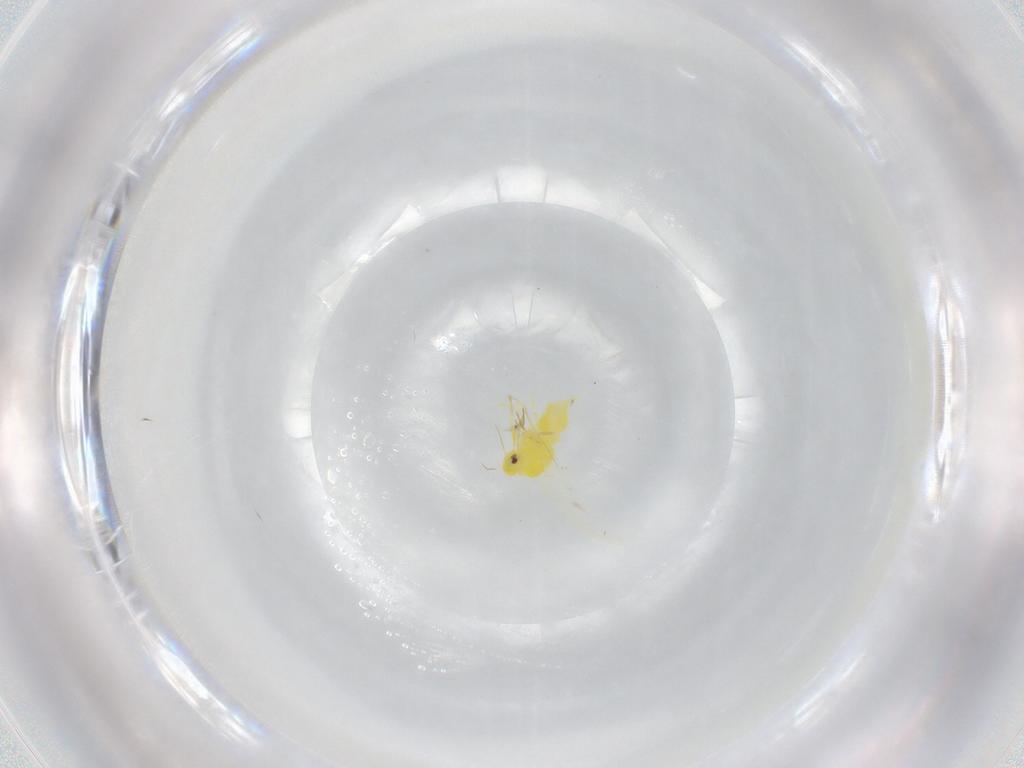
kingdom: Animalia
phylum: Arthropoda
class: Insecta
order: Hemiptera
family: Aleyrodidae
